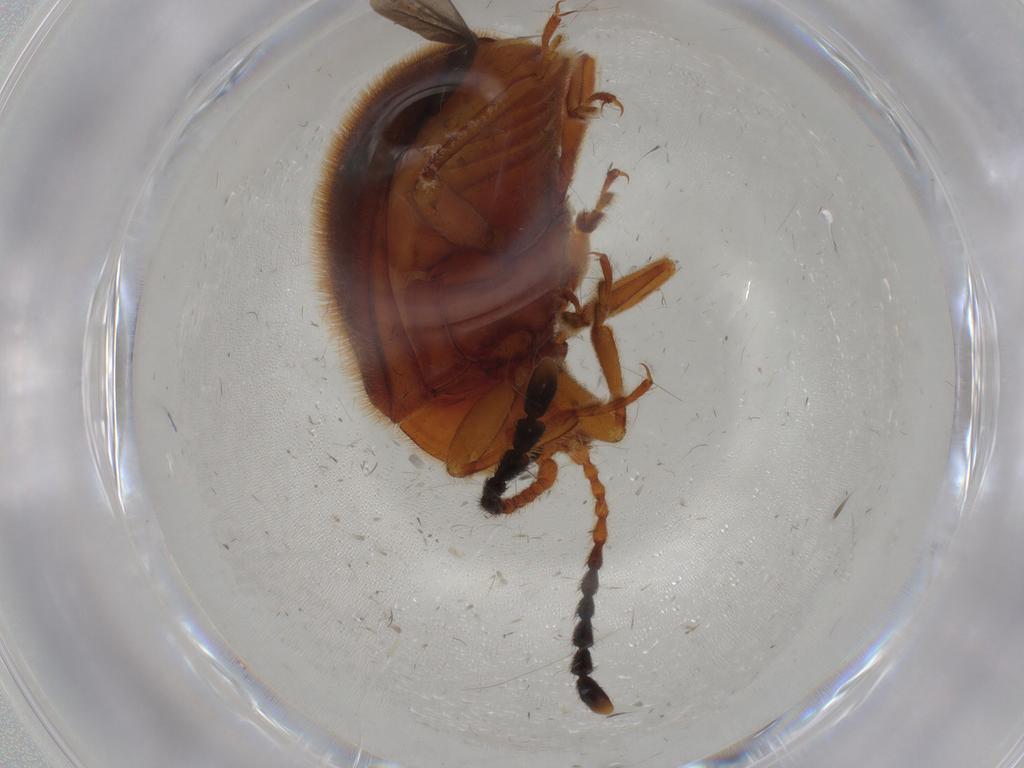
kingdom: Animalia
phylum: Arthropoda
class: Insecta
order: Coleoptera
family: Endomychidae
